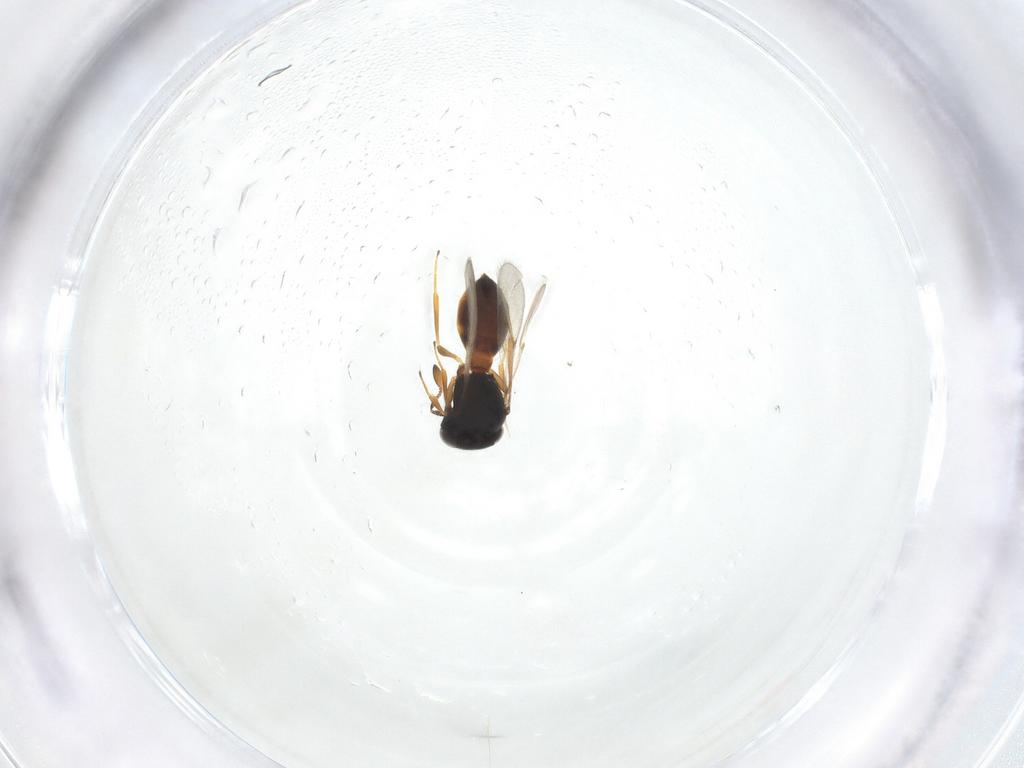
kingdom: Animalia
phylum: Arthropoda
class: Arachnida
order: Araneae
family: Pholcidae
